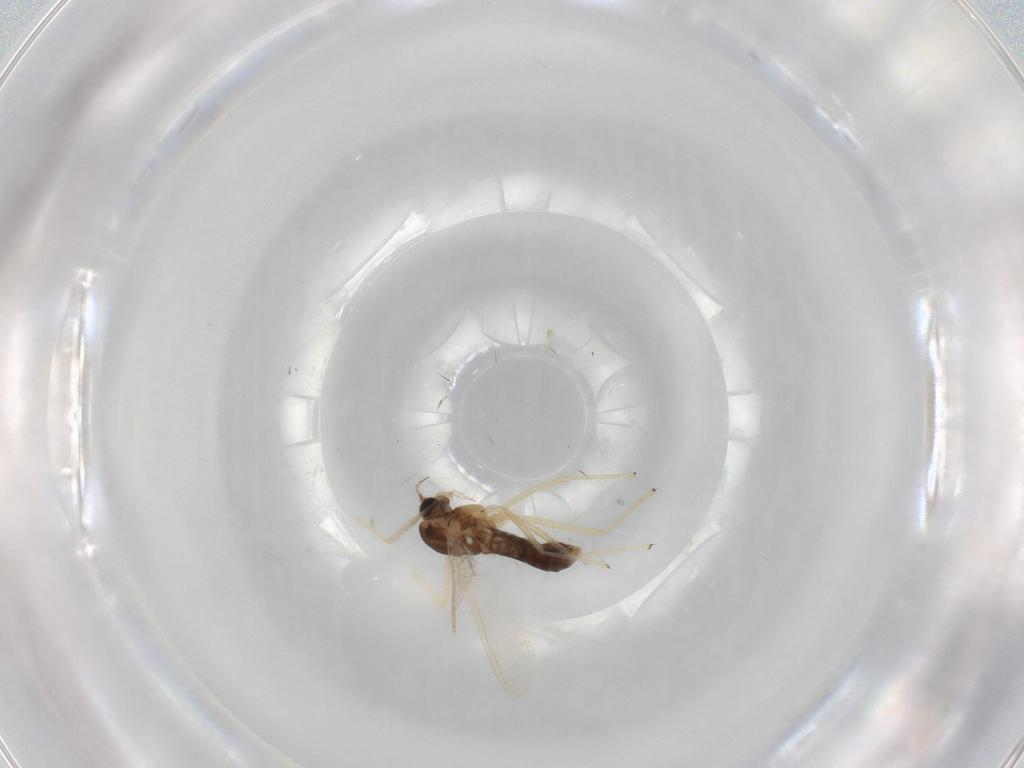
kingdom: Animalia
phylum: Arthropoda
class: Insecta
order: Diptera
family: Chironomidae
